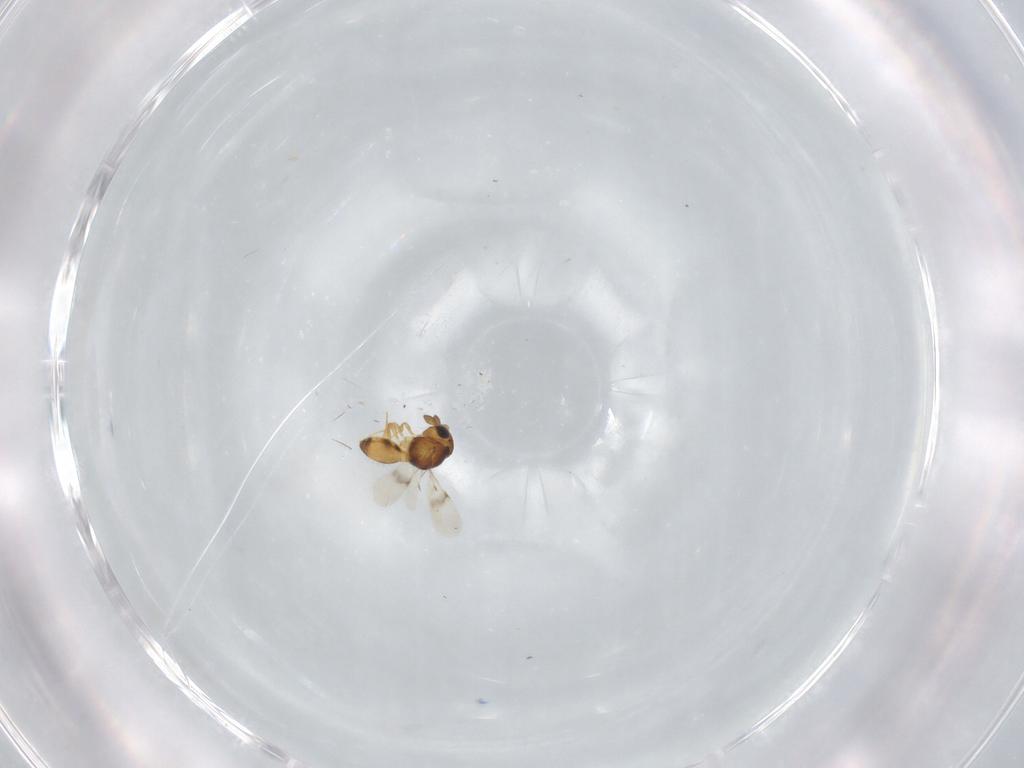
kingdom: Animalia
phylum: Arthropoda
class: Insecta
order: Hymenoptera
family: Scelionidae
